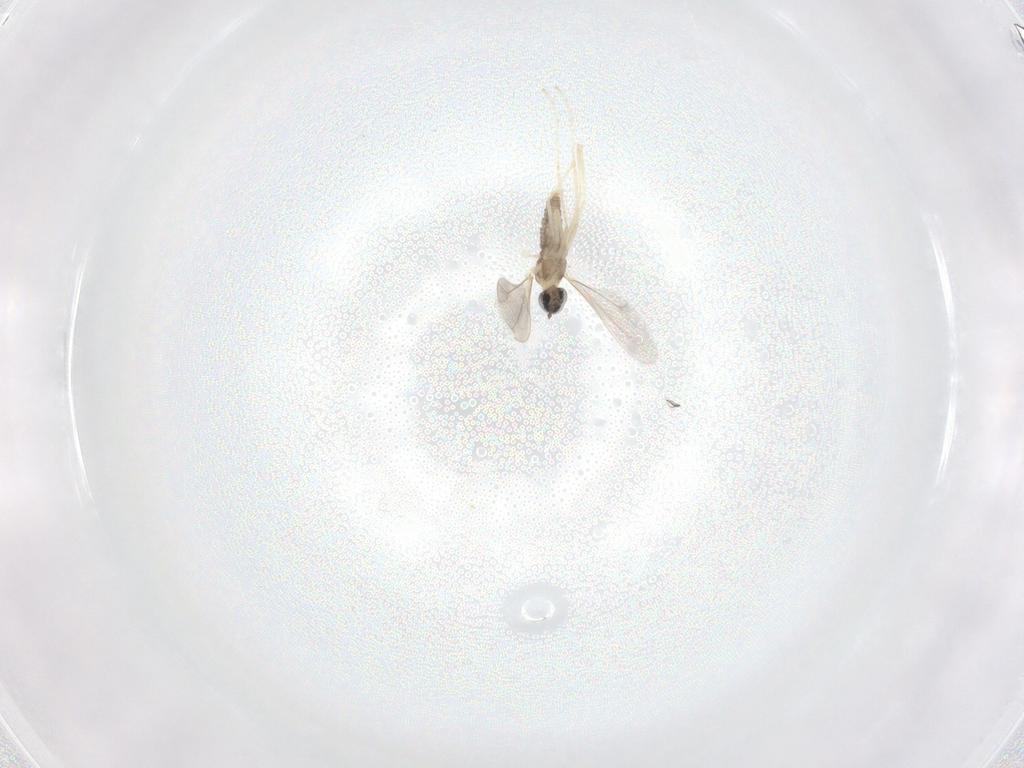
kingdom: Animalia
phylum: Arthropoda
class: Insecta
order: Diptera
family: Cecidomyiidae
